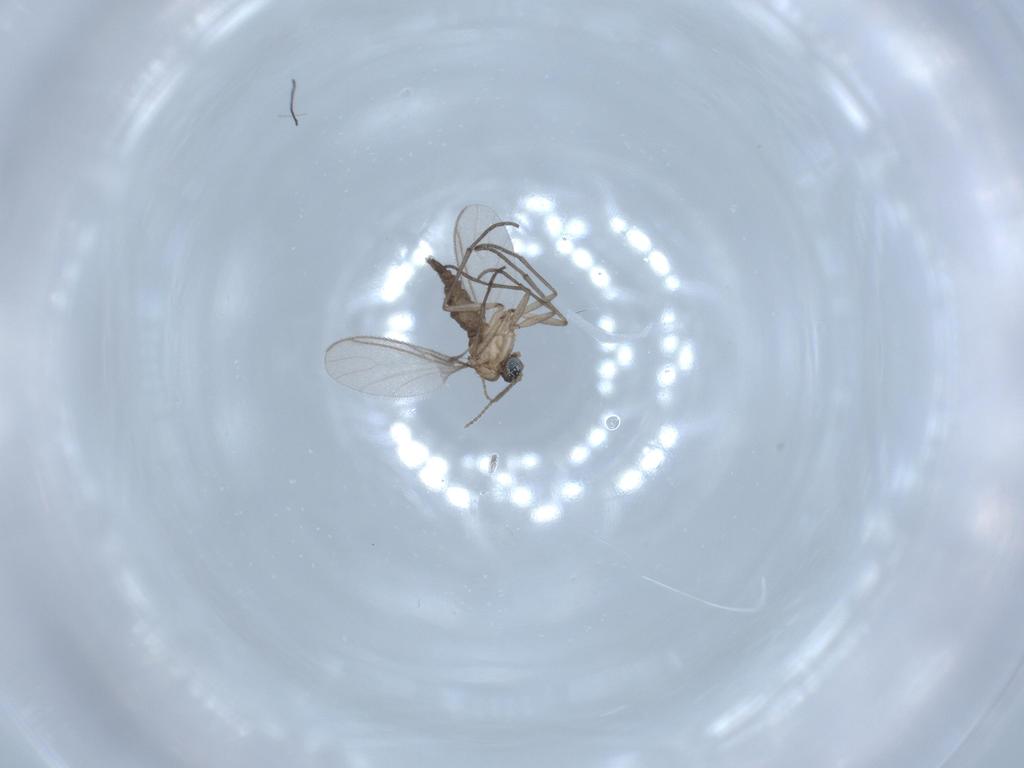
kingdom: Animalia
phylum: Arthropoda
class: Insecta
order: Diptera
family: Sciaridae
